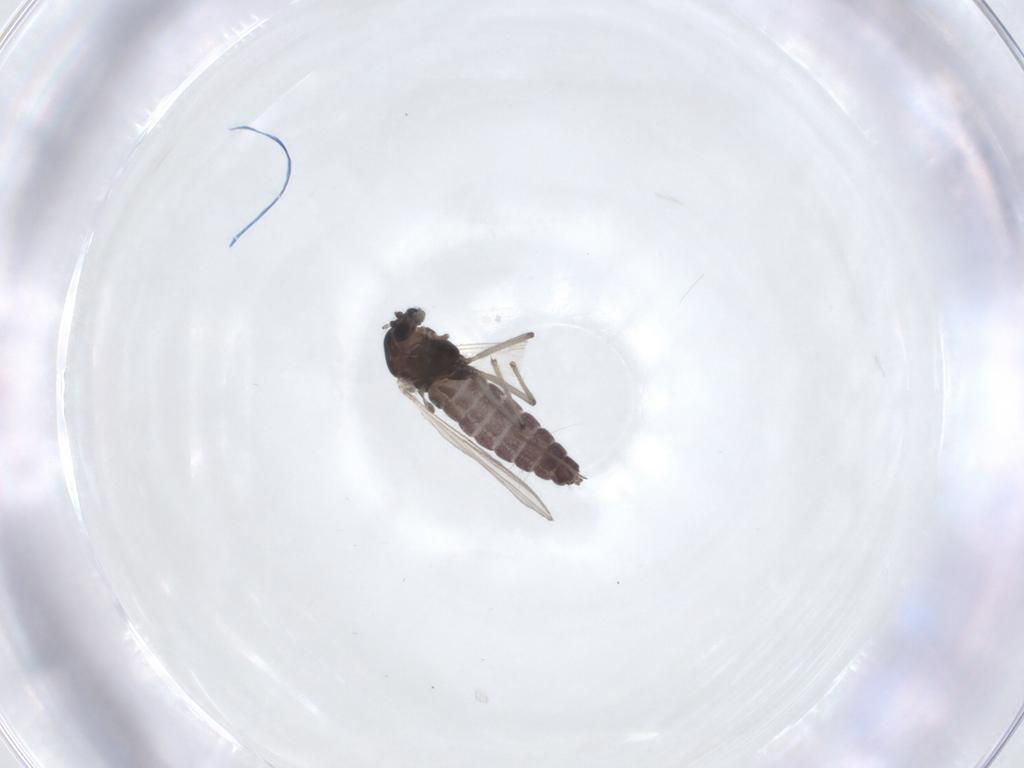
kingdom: Animalia
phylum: Arthropoda
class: Insecta
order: Diptera
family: Chironomidae
